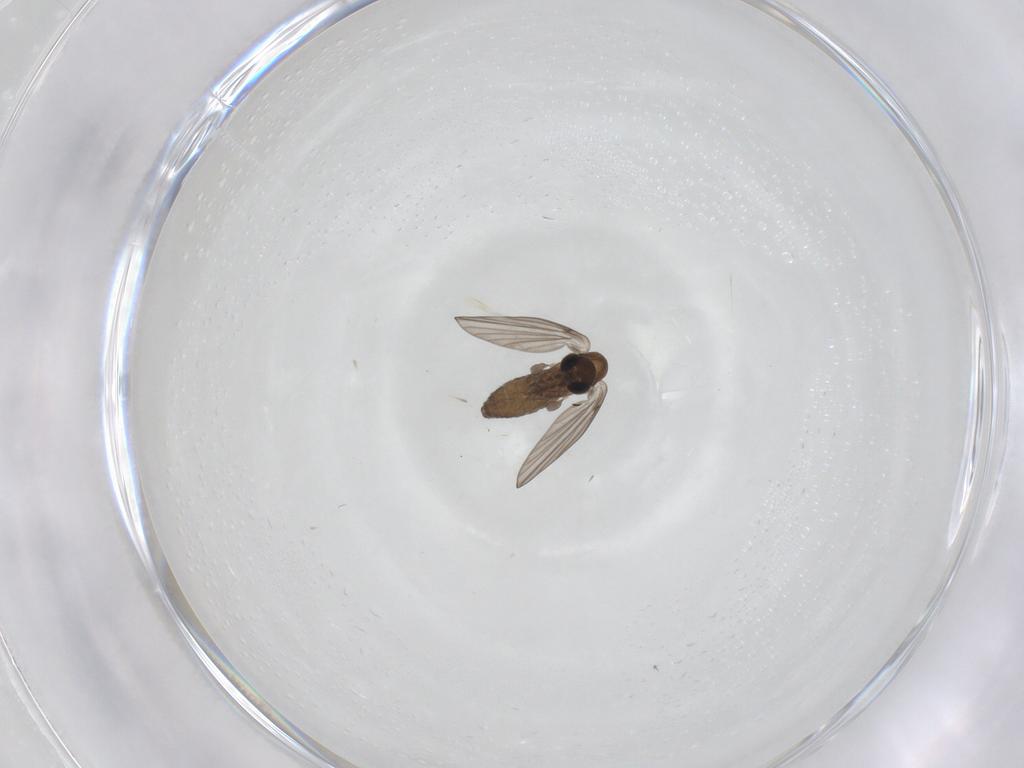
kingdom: Animalia
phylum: Arthropoda
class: Insecta
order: Diptera
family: Psychodidae
